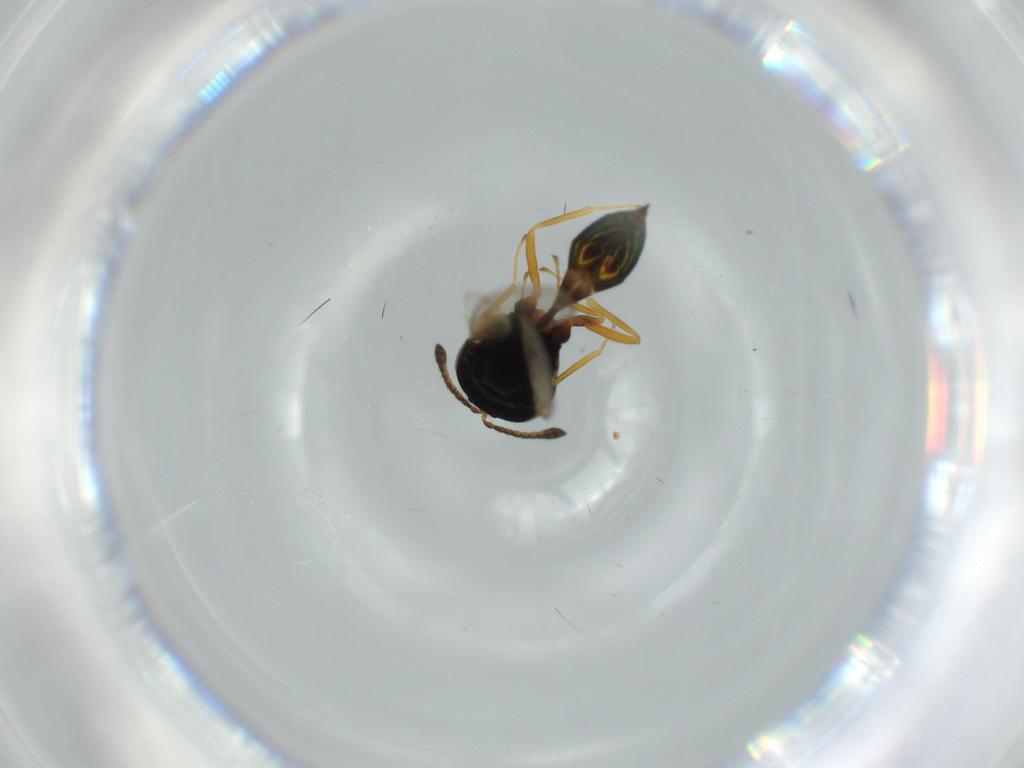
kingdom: Animalia
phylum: Arthropoda
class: Insecta
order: Hymenoptera
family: Pteromalidae
